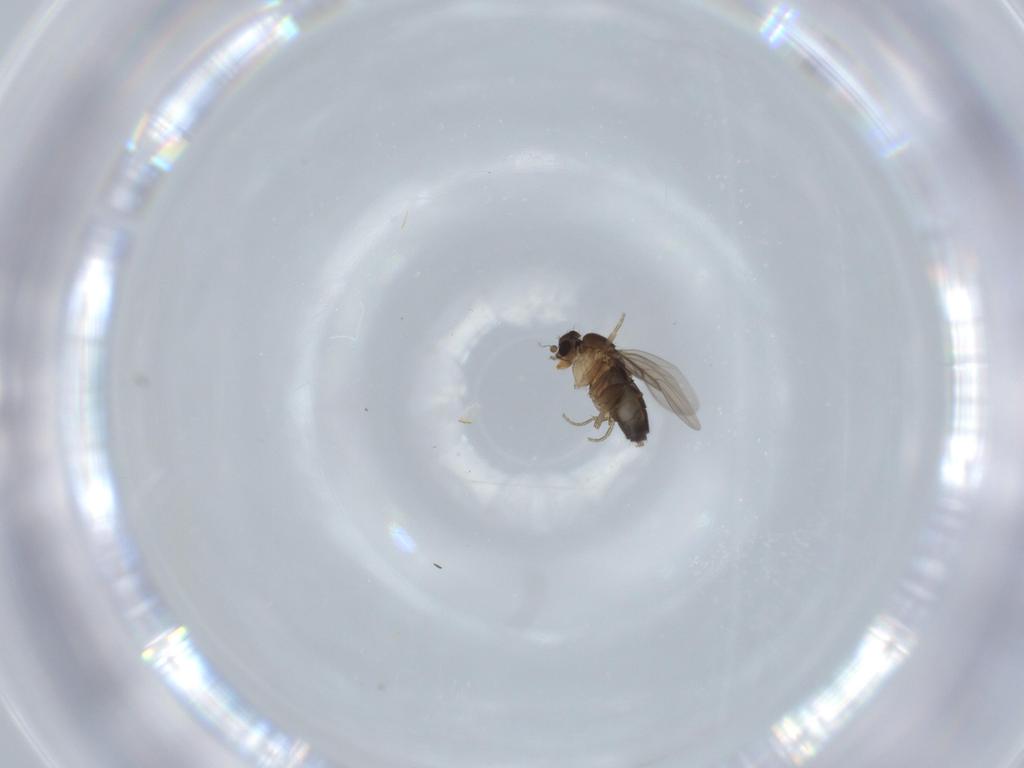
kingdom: Animalia
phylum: Arthropoda
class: Insecta
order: Diptera
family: Phoridae
